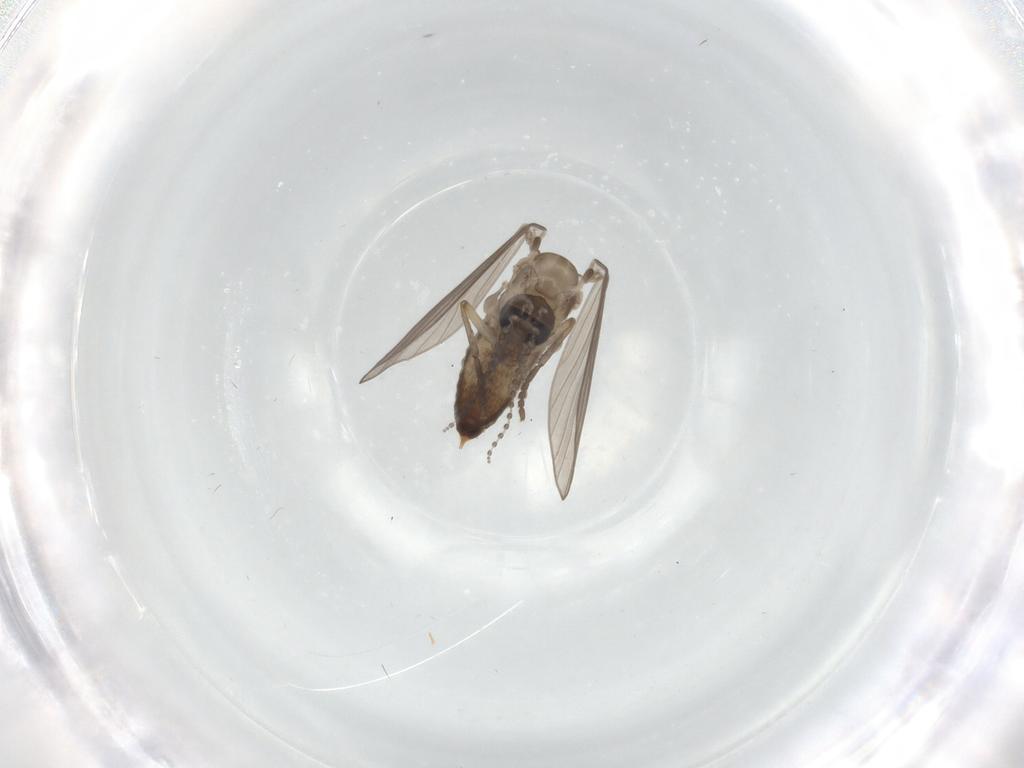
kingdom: Animalia
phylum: Arthropoda
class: Insecta
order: Diptera
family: Psychodidae
